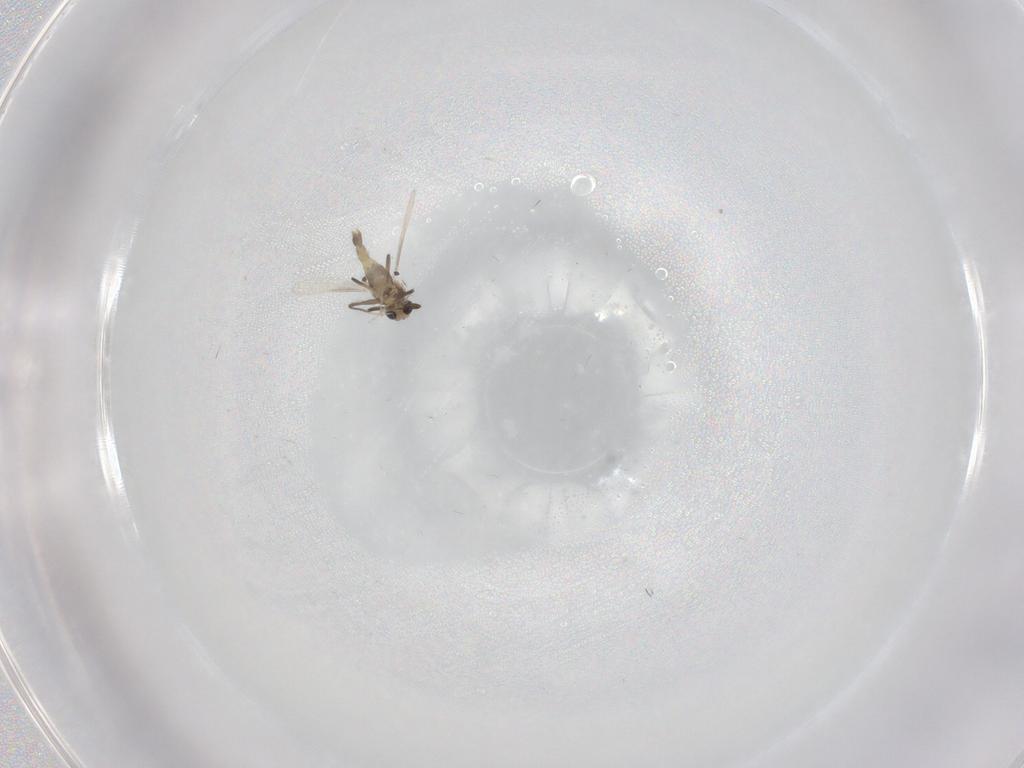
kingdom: Animalia
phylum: Arthropoda
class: Insecta
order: Diptera
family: Chironomidae
